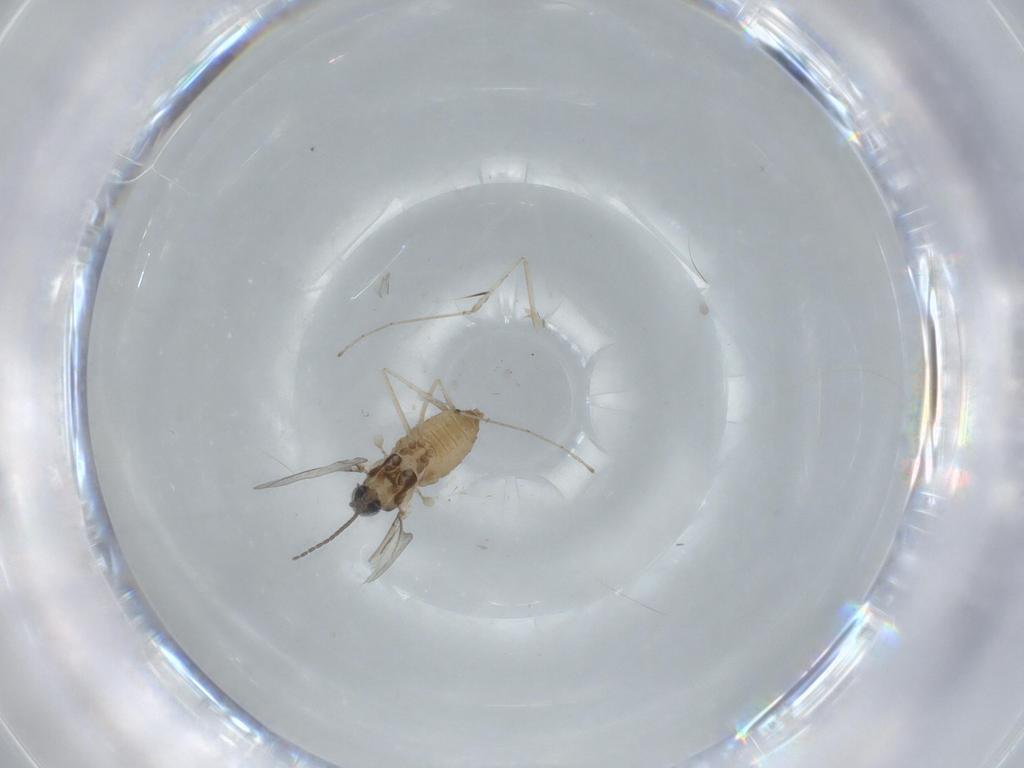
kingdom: Animalia
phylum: Arthropoda
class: Insecta
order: Diptera
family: Cecidomyiidae
